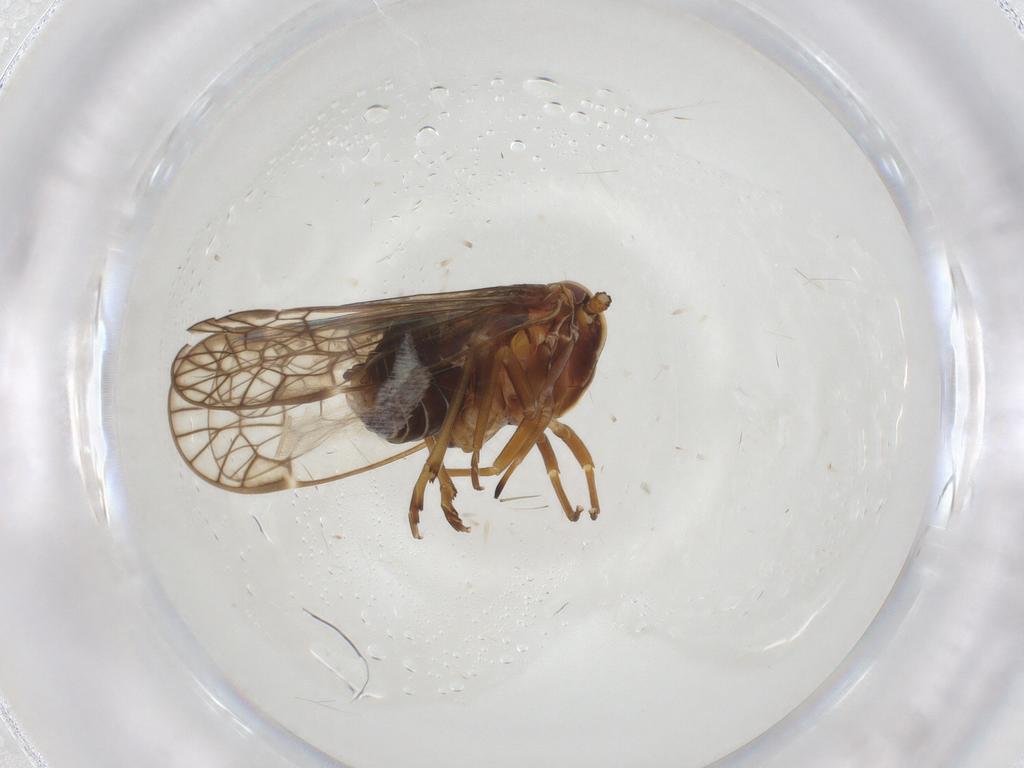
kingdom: Animalia
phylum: Arthropoda
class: Insecta
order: Hemiptera
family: Kinnaridae
